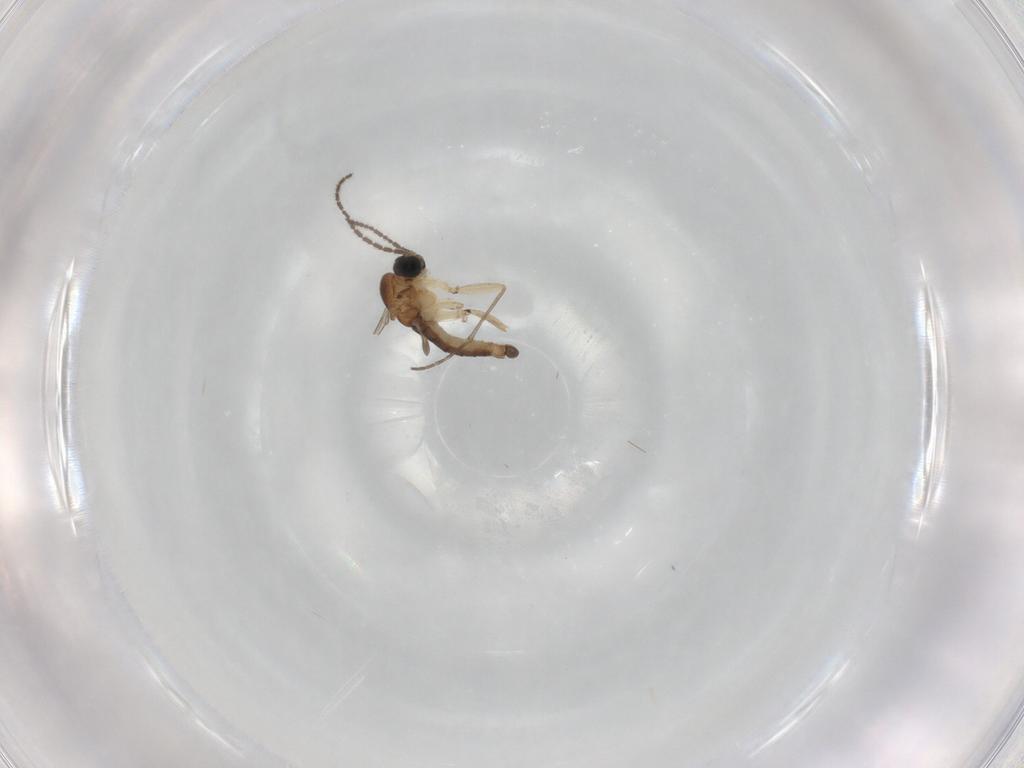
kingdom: Animalia
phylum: Arthropoda
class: Insecta
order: Diptera
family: Sciaridae
